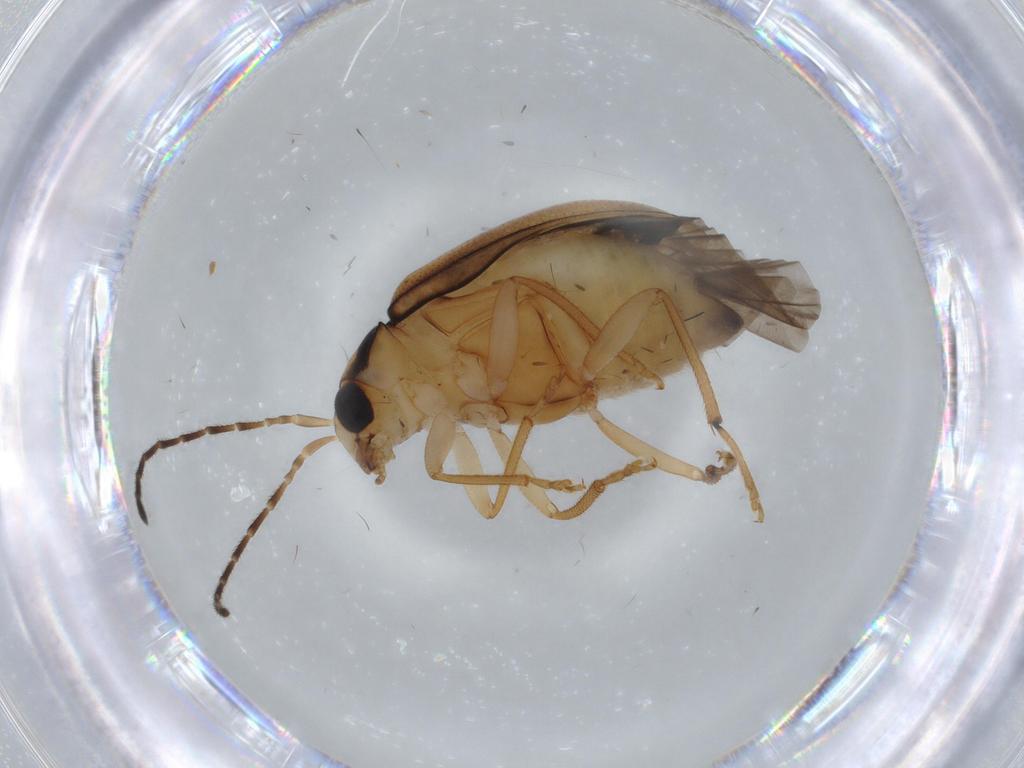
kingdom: Animalia
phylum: Arthropoda
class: Insecta
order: Coleoptera
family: Chrysomelidae
